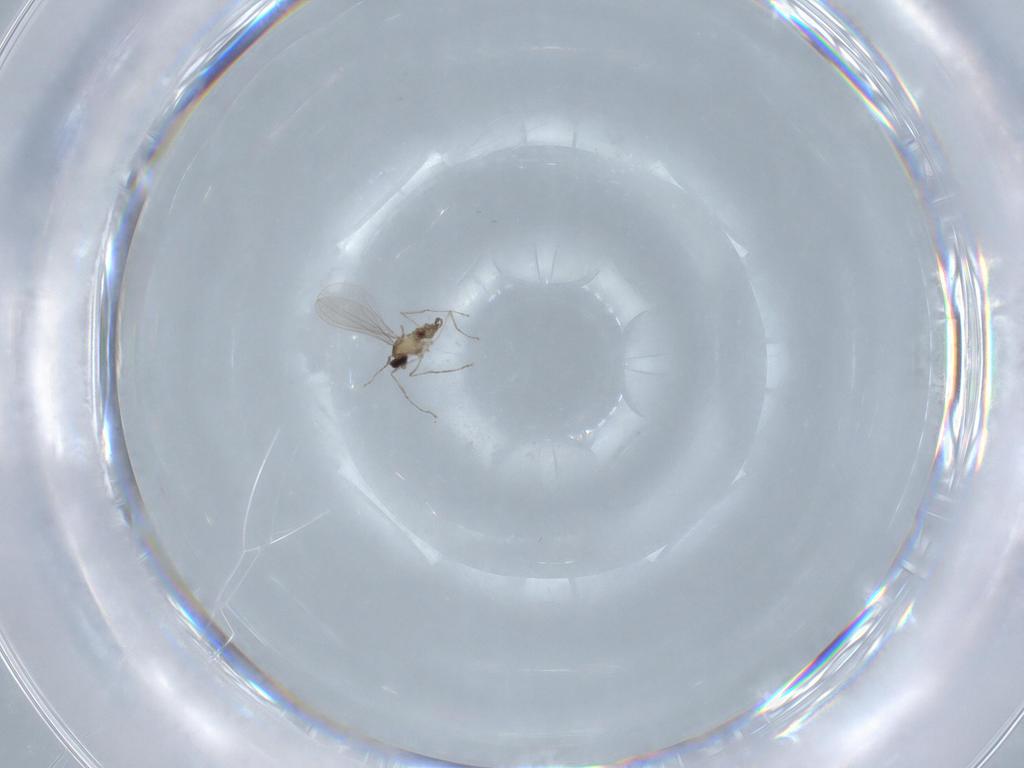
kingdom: Animalia
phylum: Arthropoda
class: Insecta
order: Diptera
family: Cecidomyiidae
